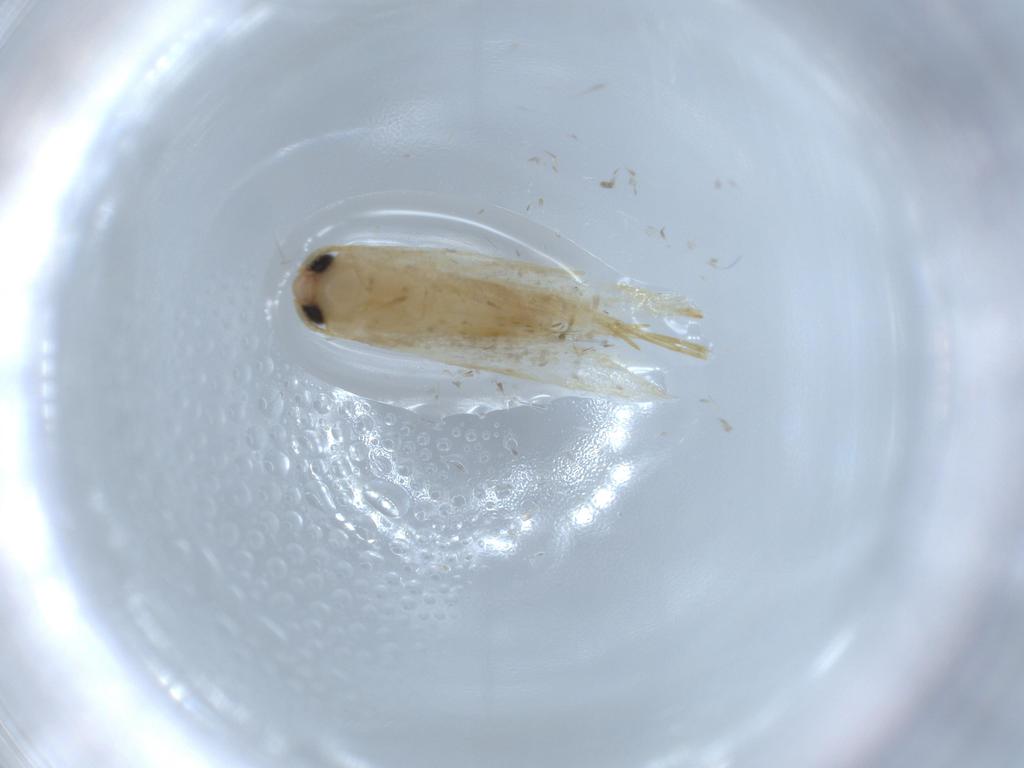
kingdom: Animalia
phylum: Arthropoda
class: Insecta
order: Lepidoptera
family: Tineidae
